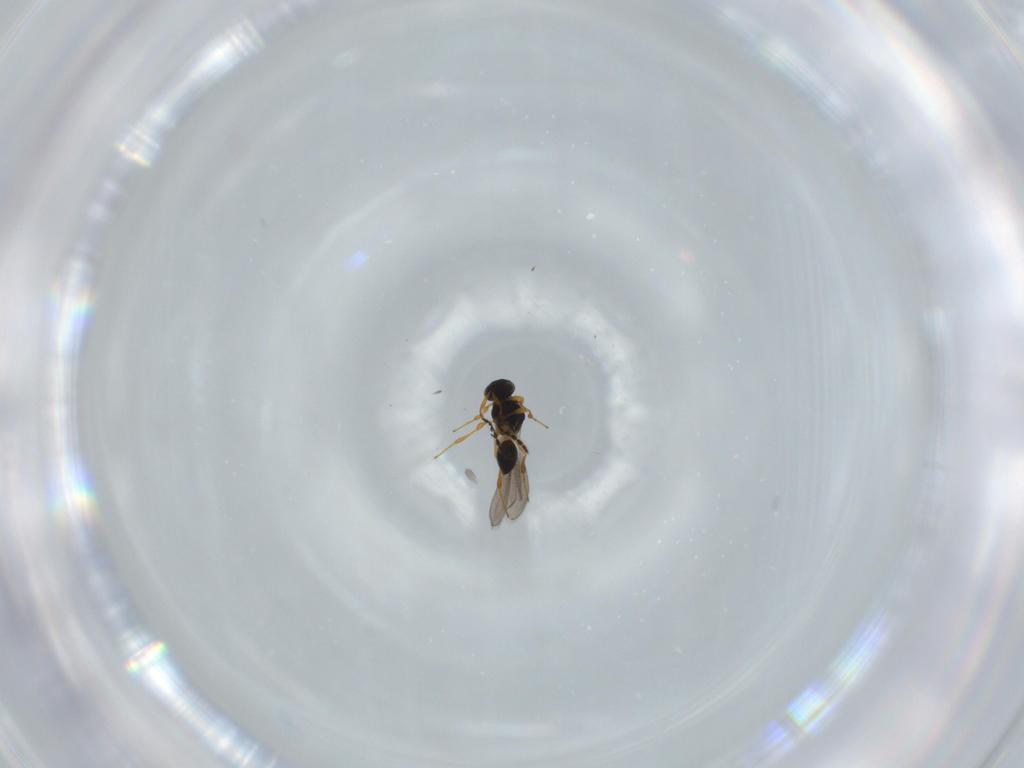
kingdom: Animalia
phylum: Arthropoda
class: Insecta
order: Hymenoptera
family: Platygastridae
